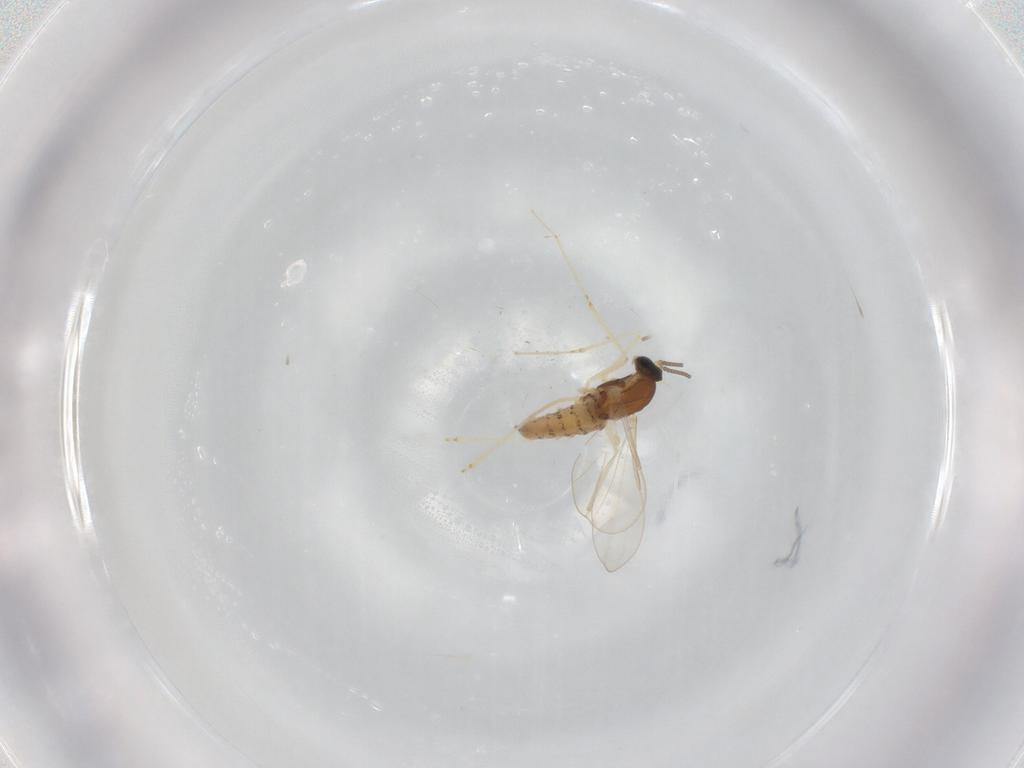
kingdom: Animalia
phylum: Arthropoda
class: Insecta
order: Diptera
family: Cecidomyiidae
